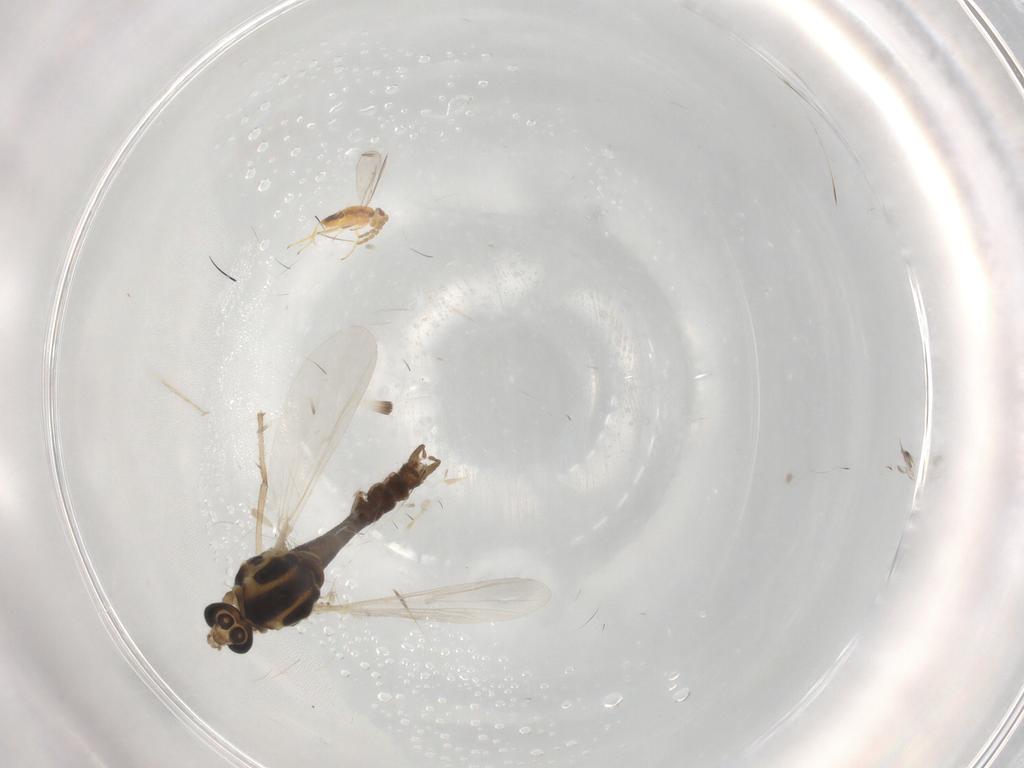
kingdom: Animalia
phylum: Arthropoda
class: Insecta
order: Diptera
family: Chironomidae
